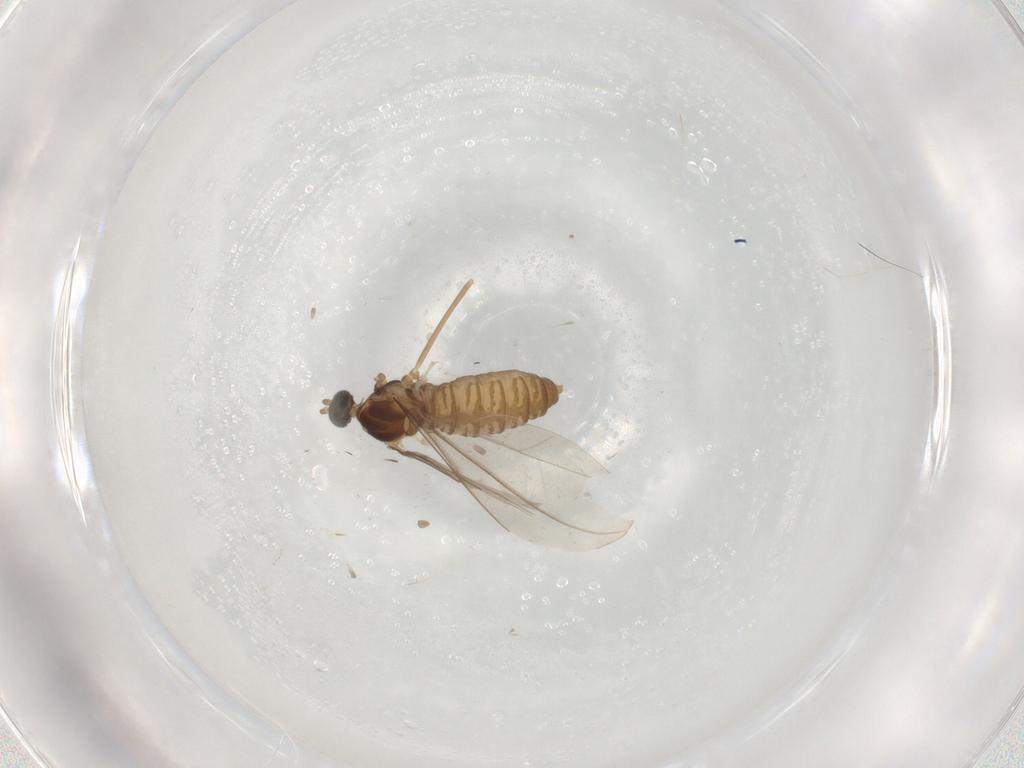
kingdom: Animalia
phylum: Arthropoda
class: Insecta
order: Diptera
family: Cecidomyiidae
